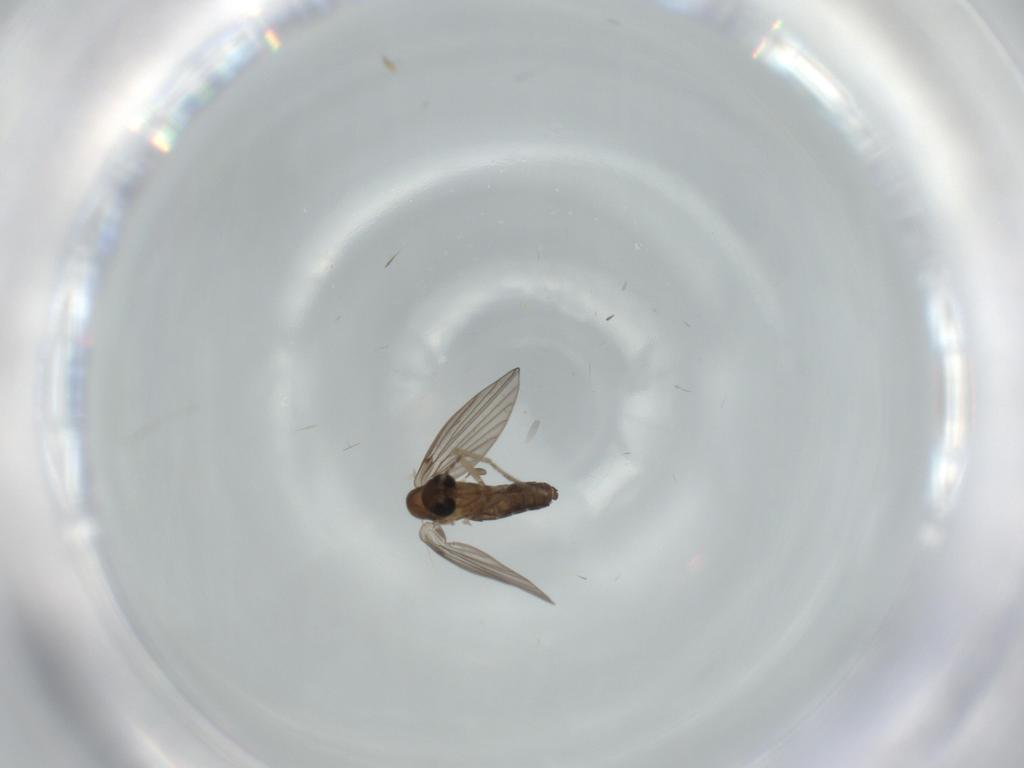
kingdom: Animalia
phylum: Arthropoda
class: Insecta
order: Diptera
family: Psychodidae
